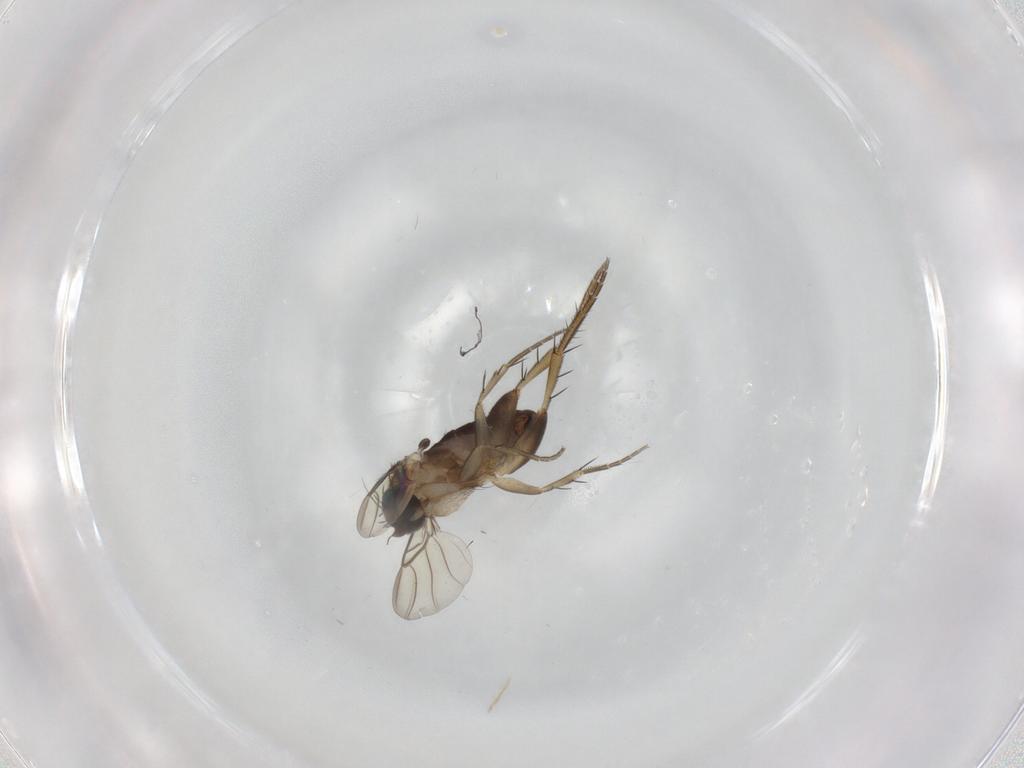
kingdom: Animalia
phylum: Arthropoda
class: Insecta
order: Diptera
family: Phoridae
